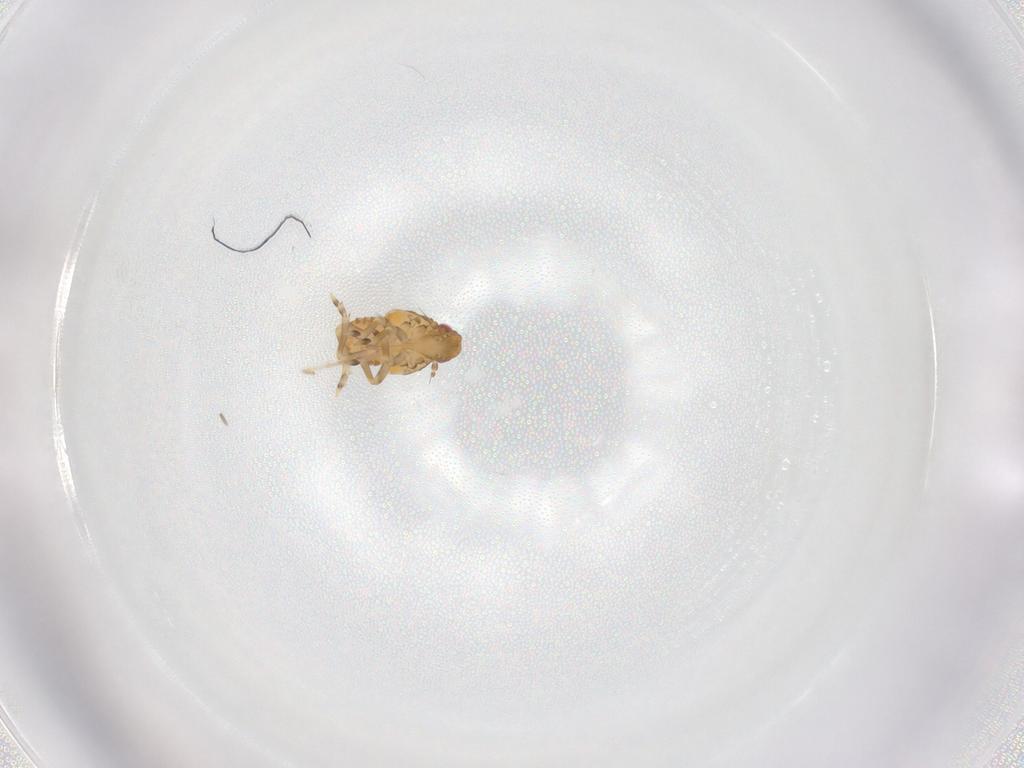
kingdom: Animalia
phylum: Arthropoda
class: Insecta
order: Hemiptera
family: Flatidae
